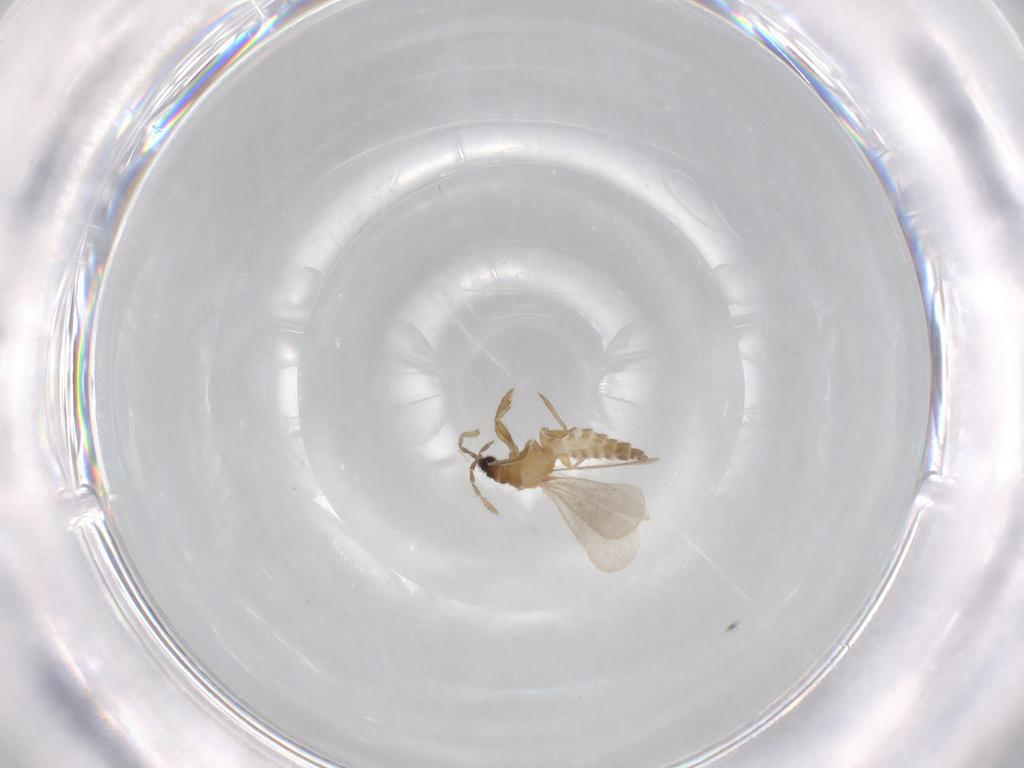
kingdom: Animalia
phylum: Arthropoda
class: Insecta
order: Hemiptera
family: Enicocephalidae
